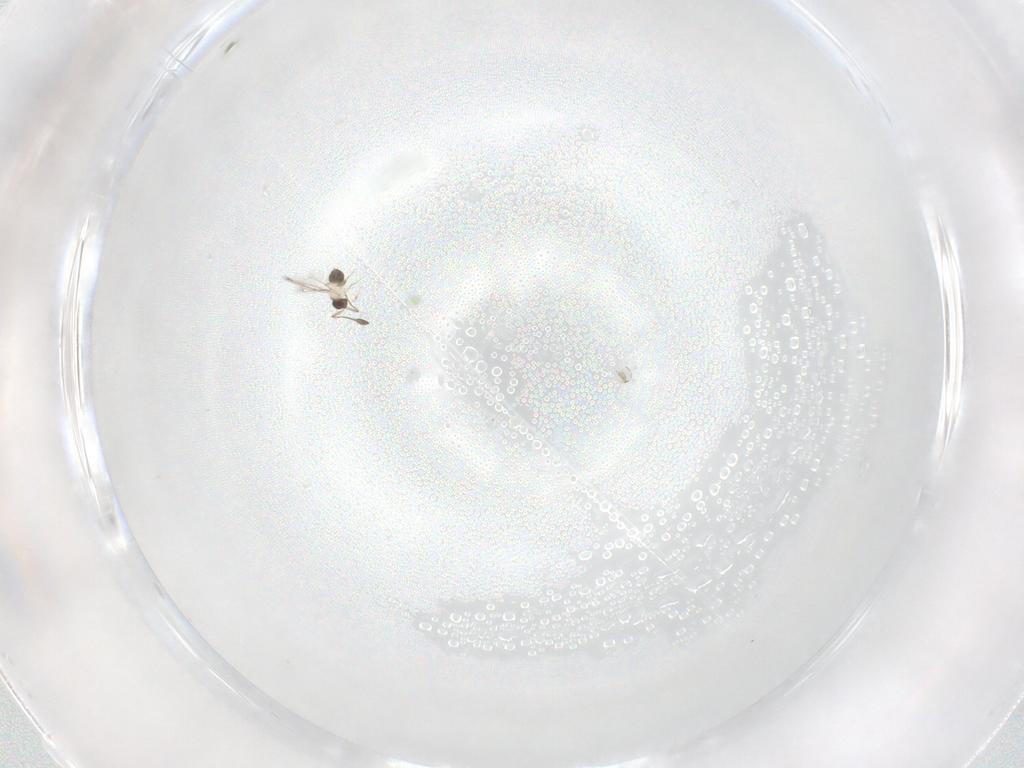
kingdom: Animalia
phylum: Arthropoda
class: Insecta
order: Hymenoptera
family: Mymaridae
